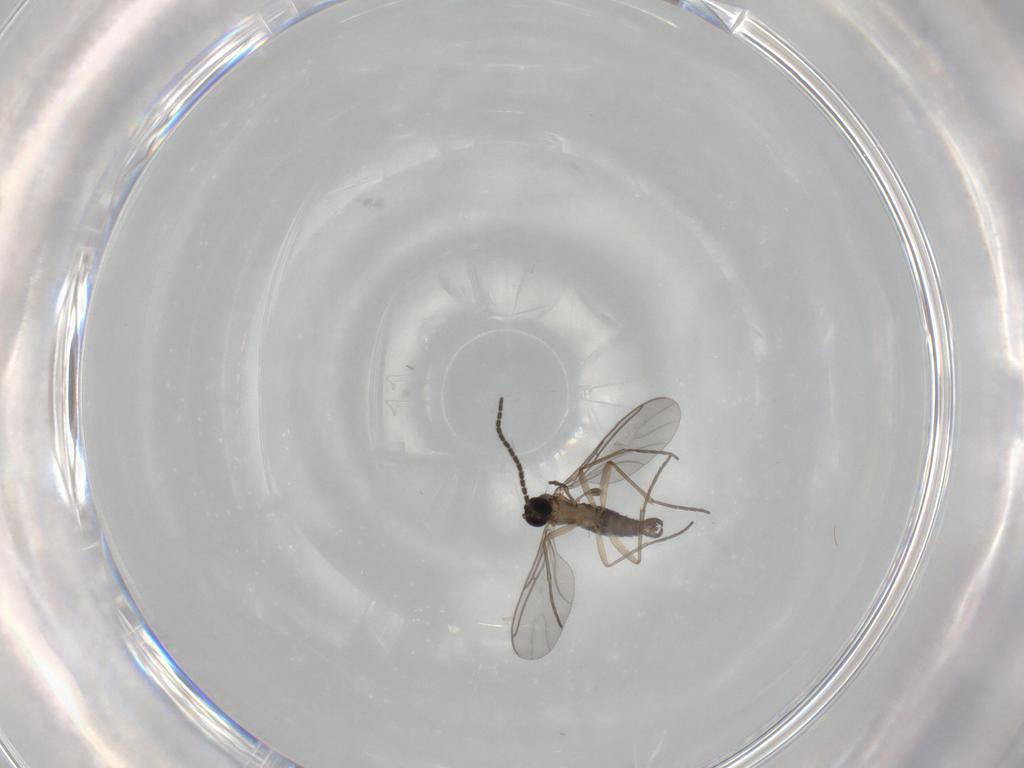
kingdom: Animalia
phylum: Arthropoda
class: Insecta
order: Diptera
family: Sciaridae
